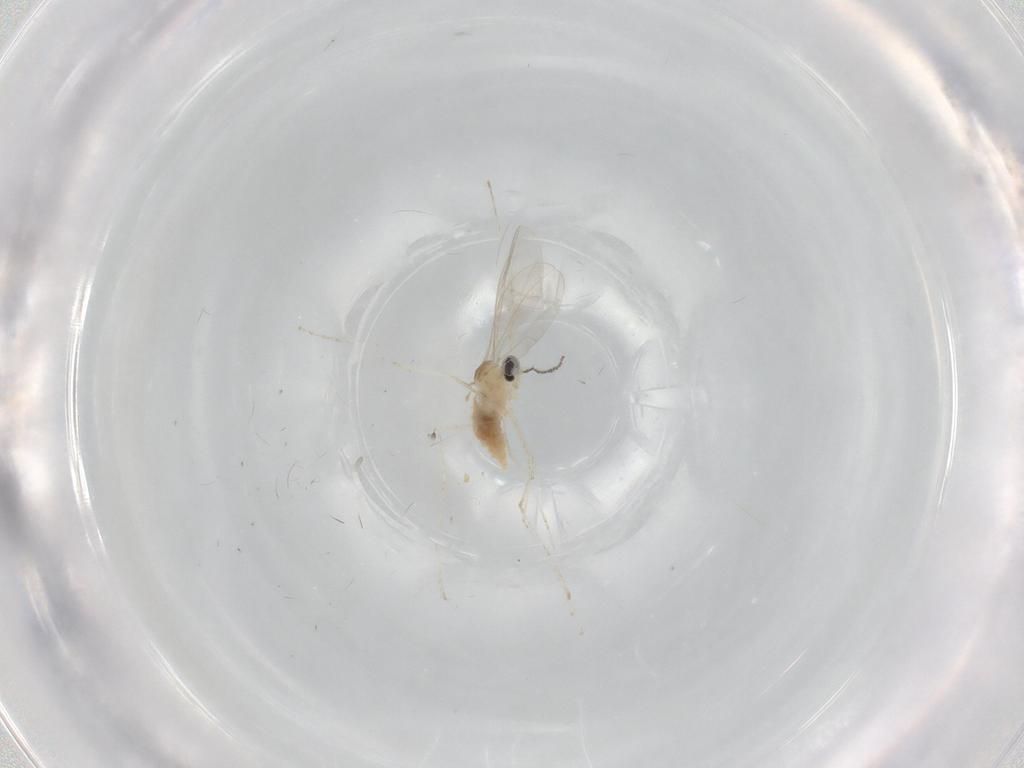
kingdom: Animalia
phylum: Arthropoda
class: Insecta
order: Diptera
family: Cecidomyiidae
